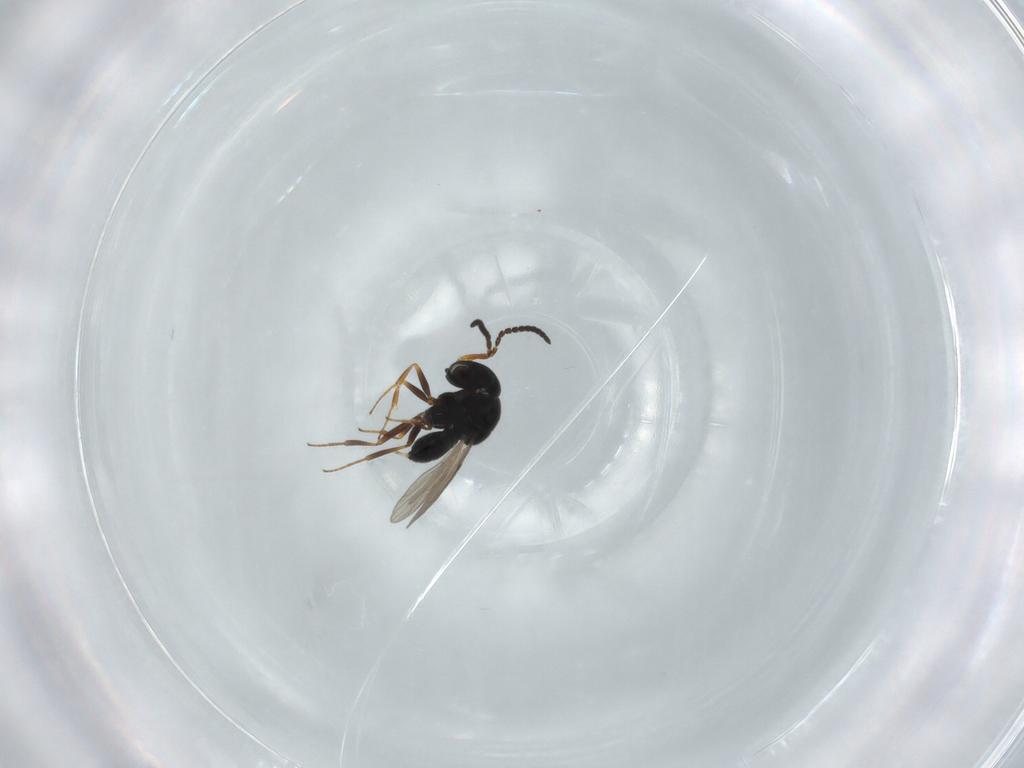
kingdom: Animalia
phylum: Arthropoda
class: Insecta
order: Hymenoptera
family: Scelionidae
